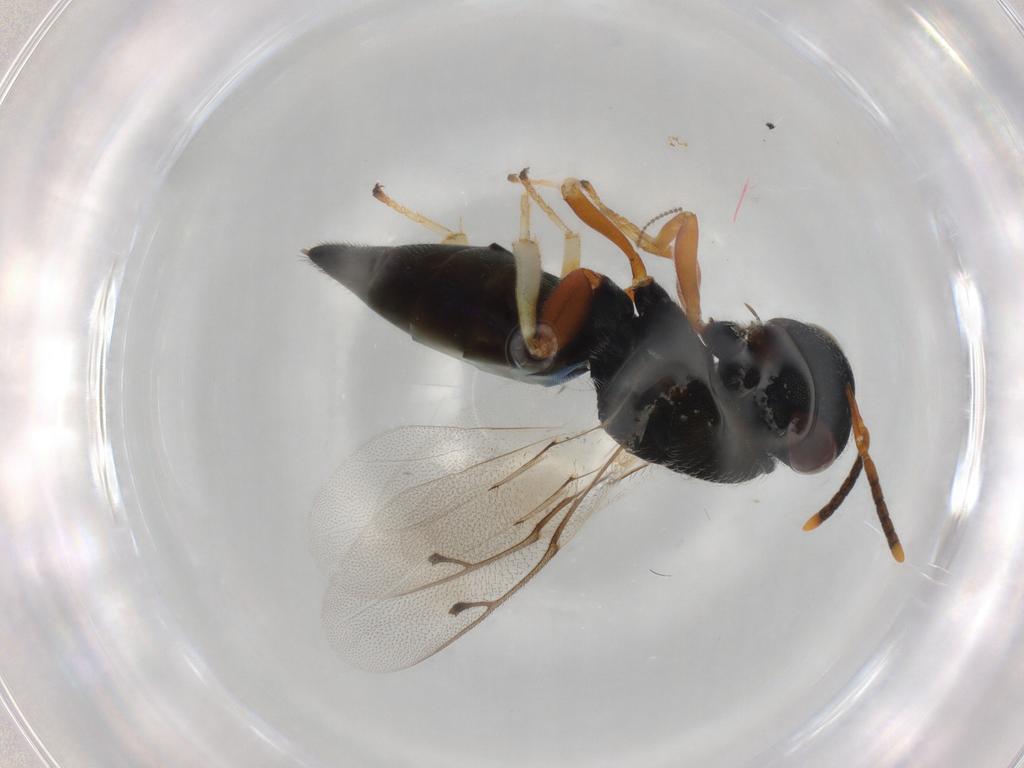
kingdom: Animalia
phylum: Arthropoda
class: Insecta
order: Hymenoptera
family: Pteromalidae
